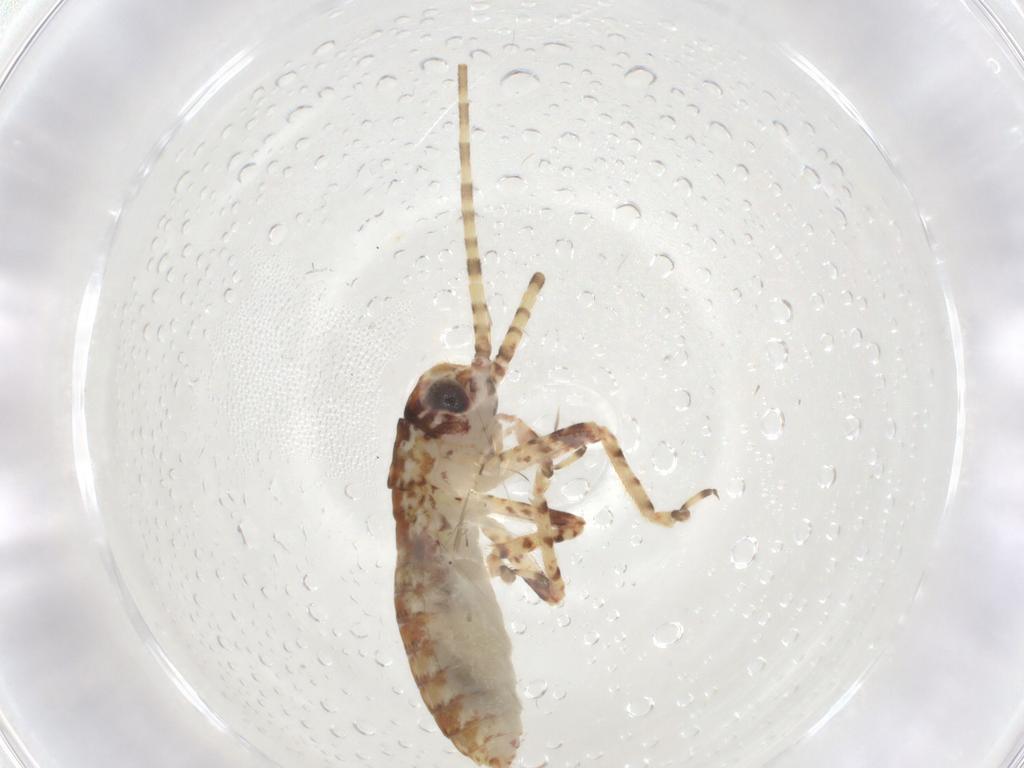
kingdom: Animalia
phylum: Arthropoda
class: Insecta
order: Orthoptera
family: Gryllidae
